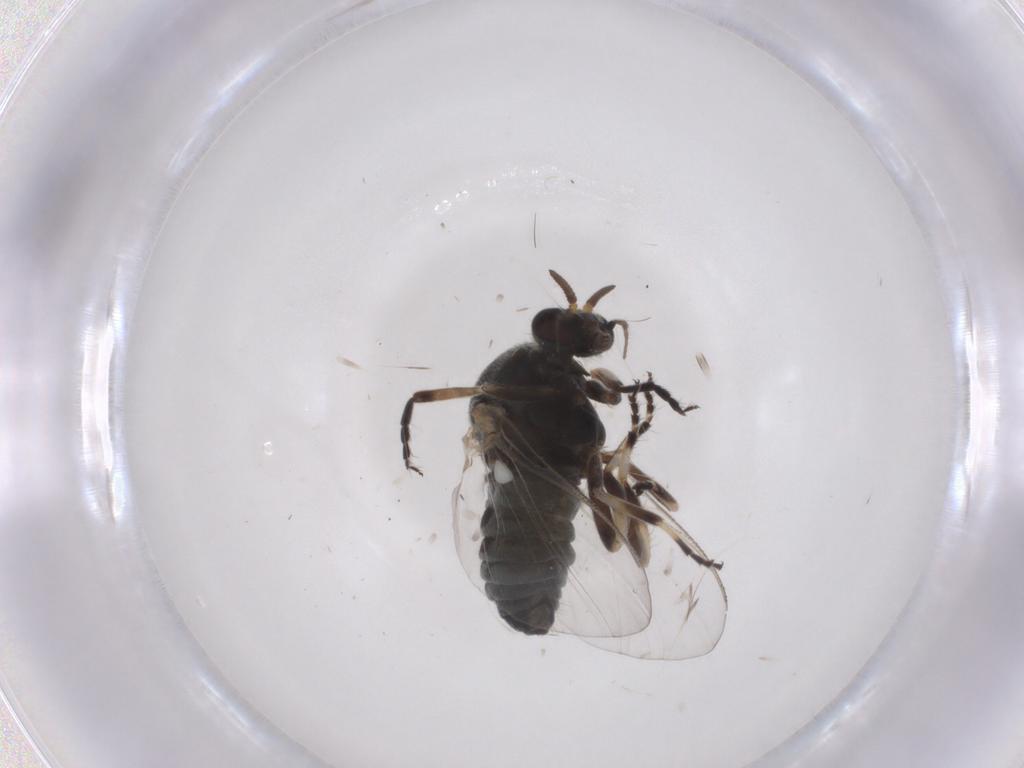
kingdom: Animalia
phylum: Arthropoda
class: Insecta
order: Diptera
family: Simuliidae
